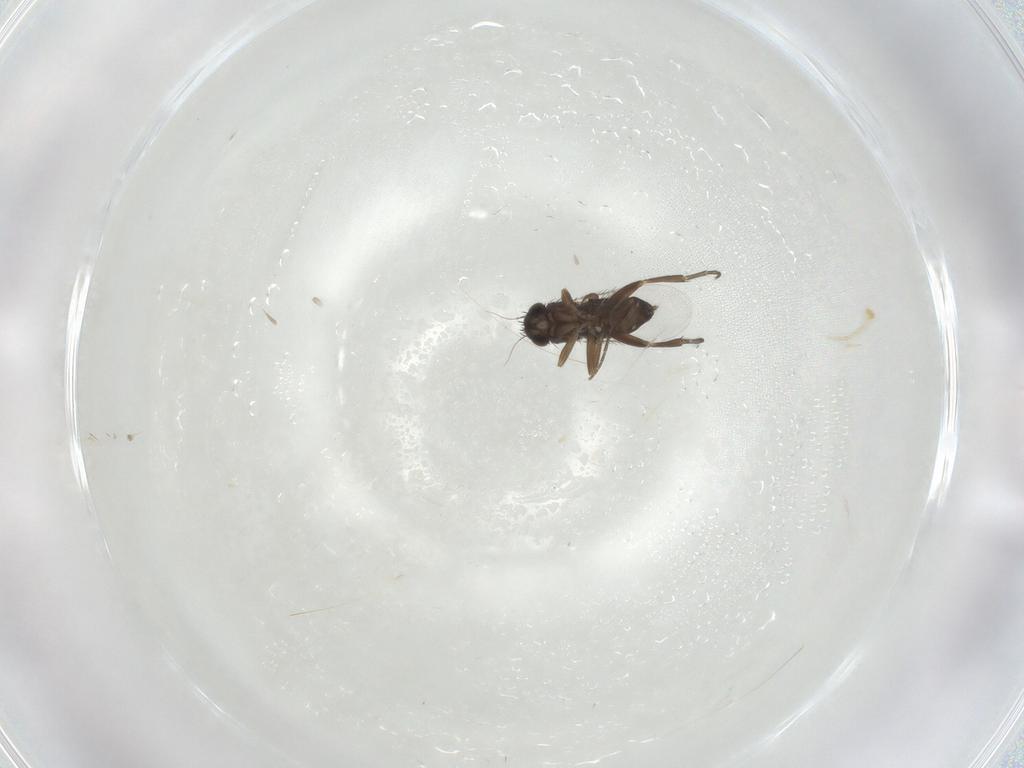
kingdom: Animalia
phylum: Arthropoda
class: Insecta
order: Diptera
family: Phoridae
